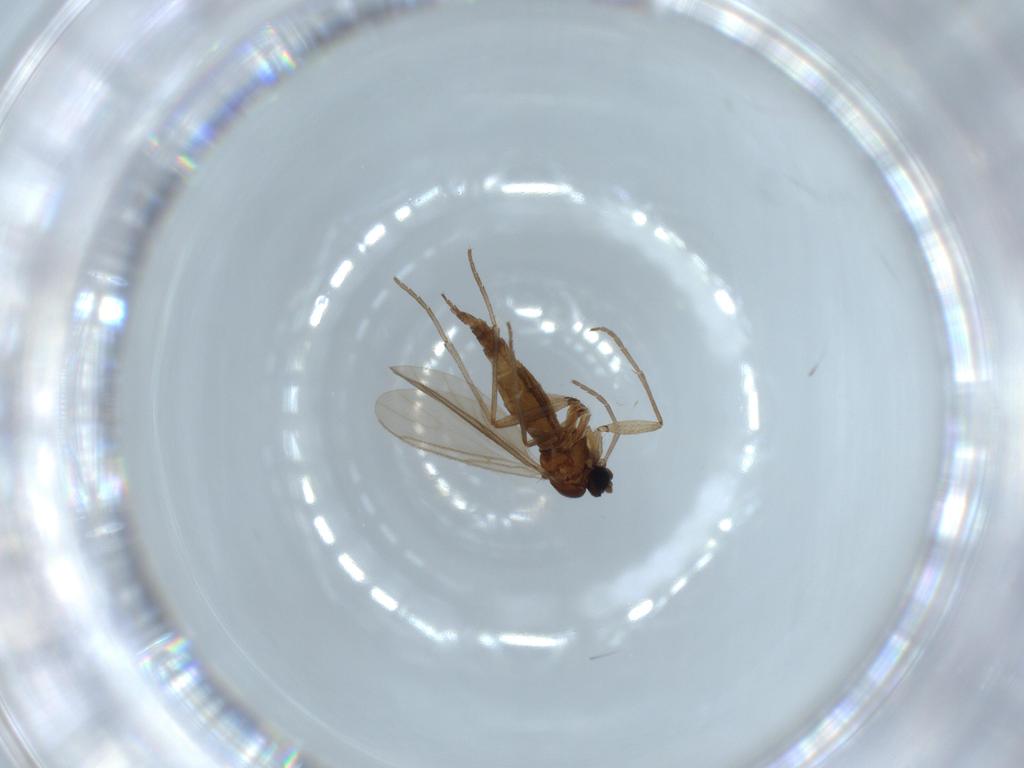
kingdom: Animalia
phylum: Arthropoda
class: Insecta
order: Diptera
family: Sciaridae
